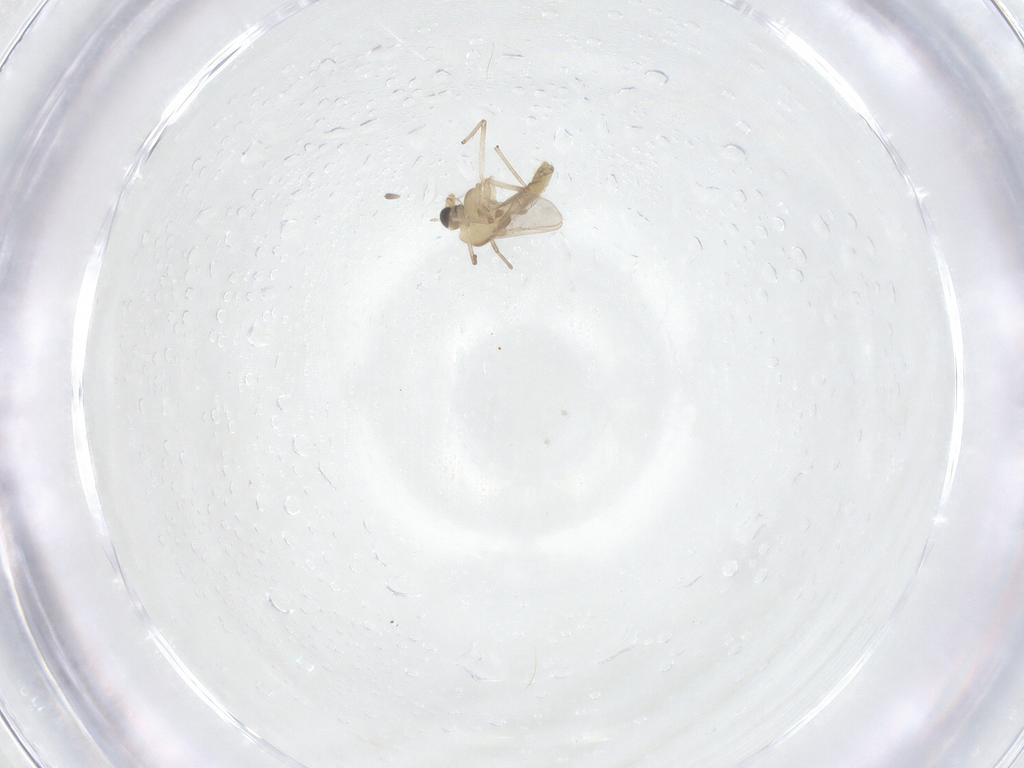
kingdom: Animalia
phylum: Arthropoda
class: Insecta
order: Diptera
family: Chironomidae
